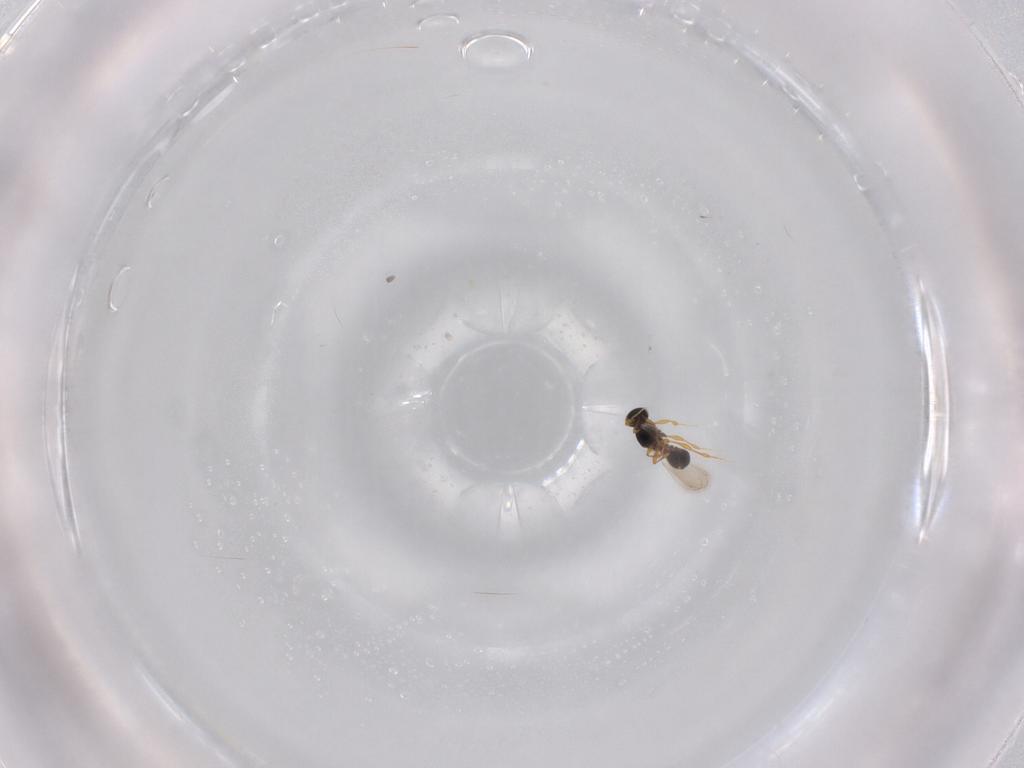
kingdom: Animalia
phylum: Arthropoda
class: Insecta
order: Hymenoptera
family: Platygastridae
